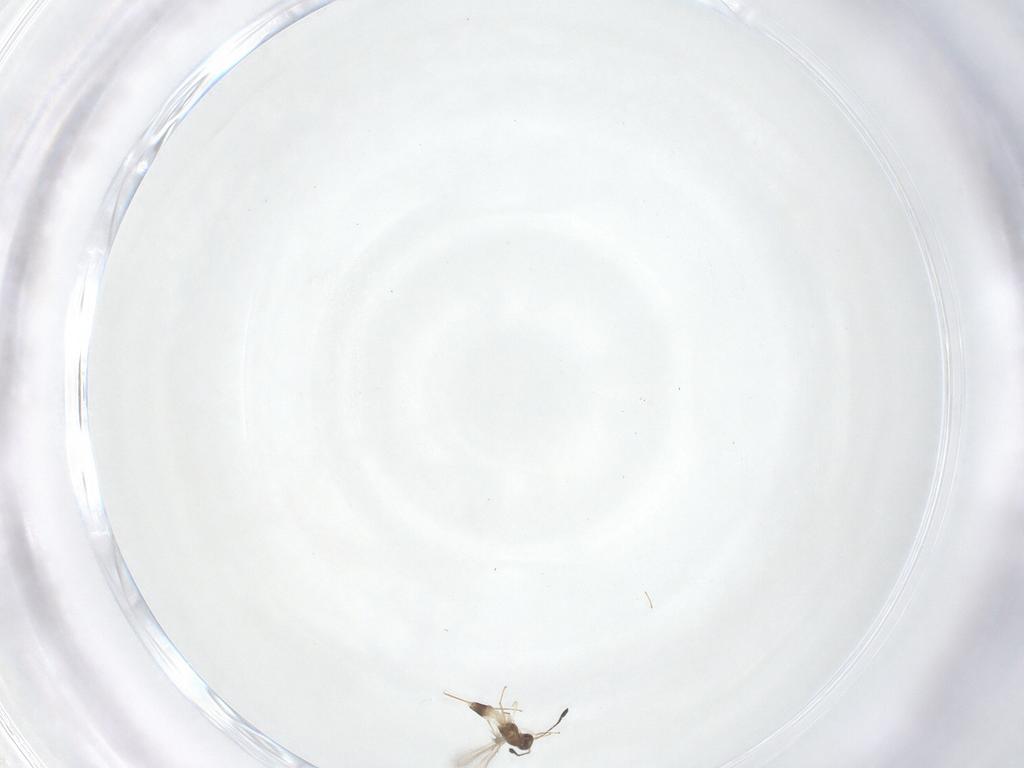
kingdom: Animalia
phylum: Arthropoda
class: Insecta
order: Hymenoptera
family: Mymaridae
